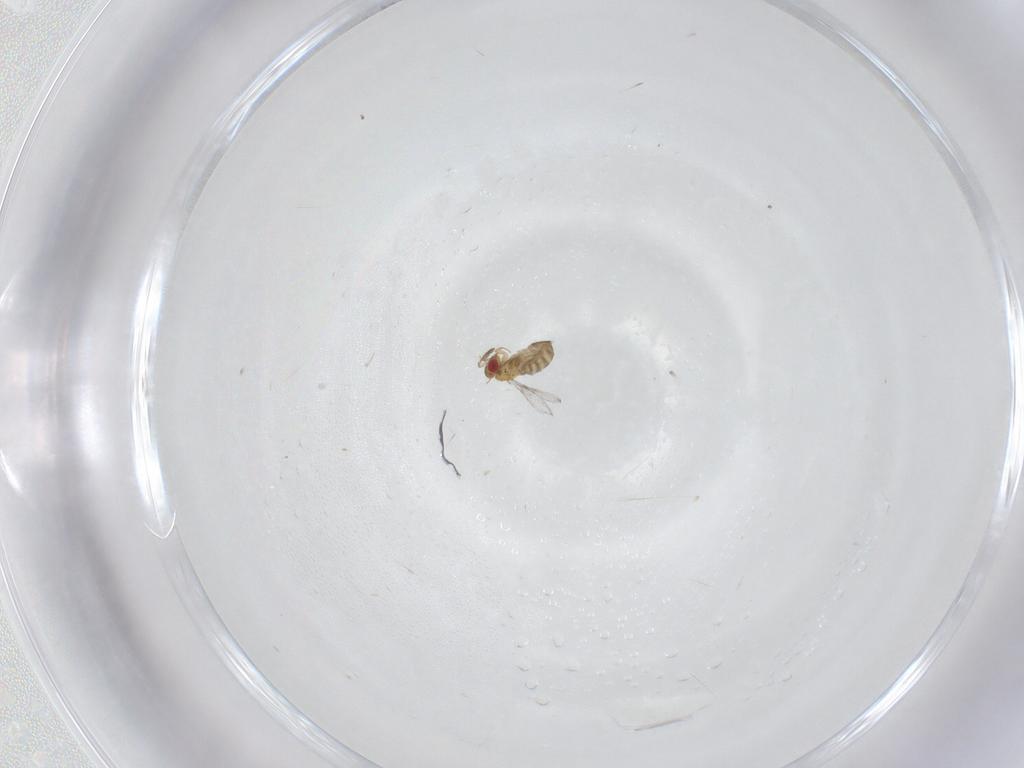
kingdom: Animalia
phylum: Arthropoda
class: Insecta
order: Hymenoptera
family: Trichogrammatidae
